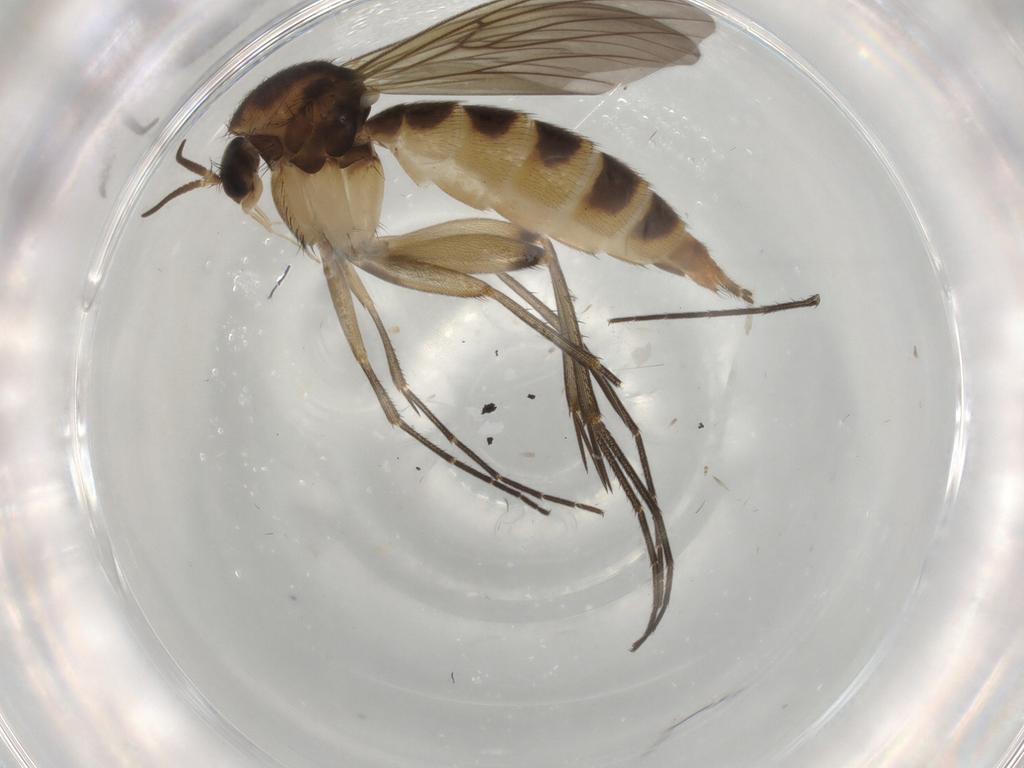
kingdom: Animalia
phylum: Arthropoda
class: Insecta
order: Diptera
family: Mycetophilidae
